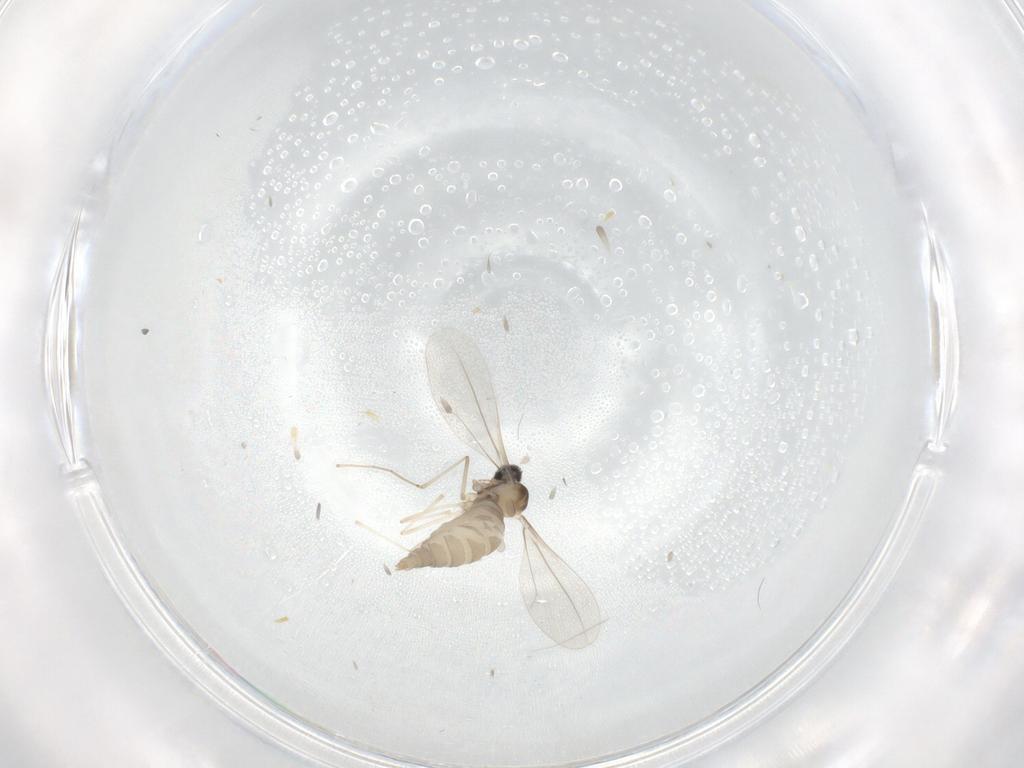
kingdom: Animalia
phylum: Arthropoda
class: Insecta
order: Diptera
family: Cecidomyiidae
